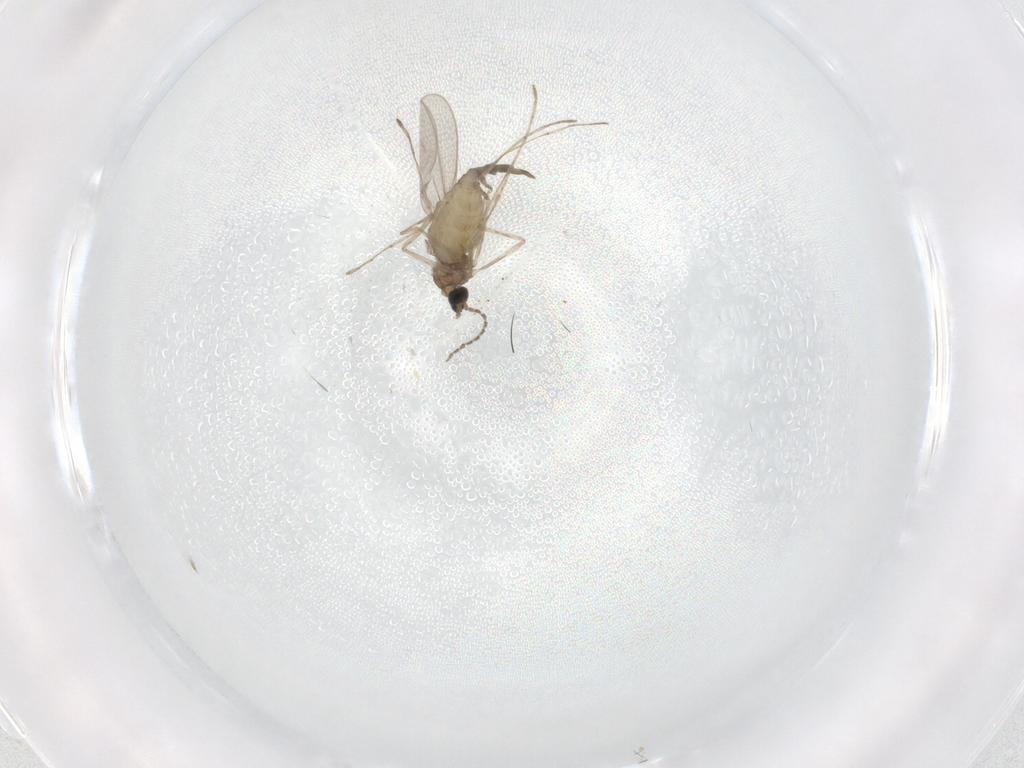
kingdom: Animalia
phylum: Arthropoda
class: Insecta
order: Diptera
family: Cecidomyiidae
